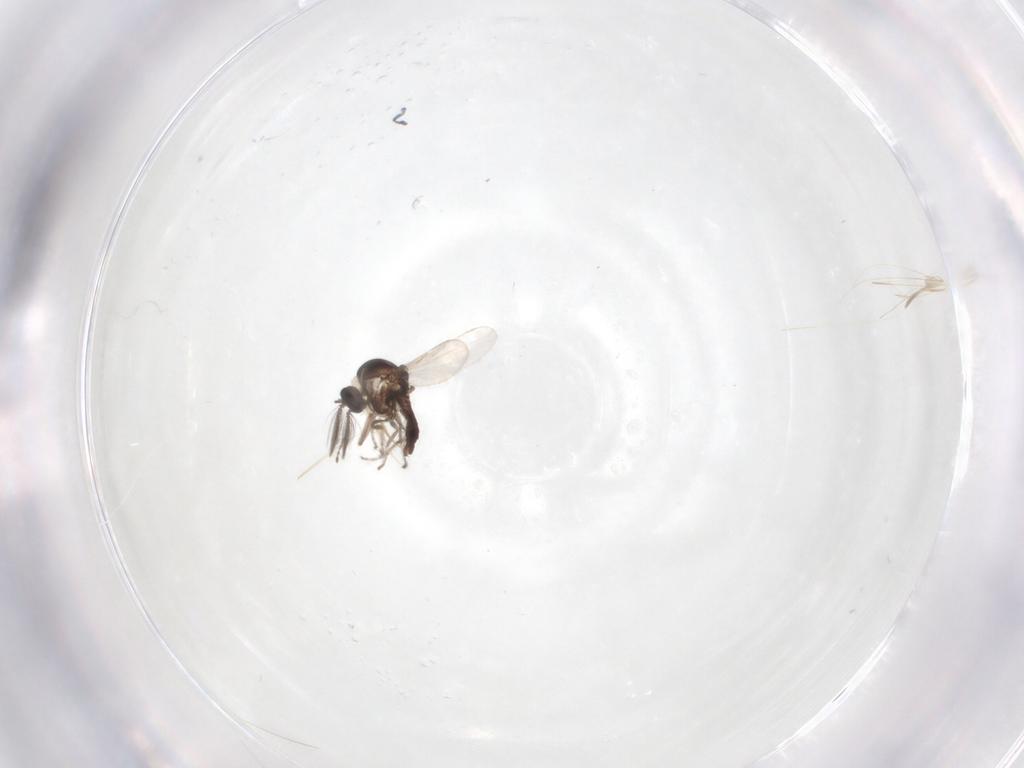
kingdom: Animalia
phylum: Arthropoda
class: Insecta
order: Diptera
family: Ceratopogonidae
